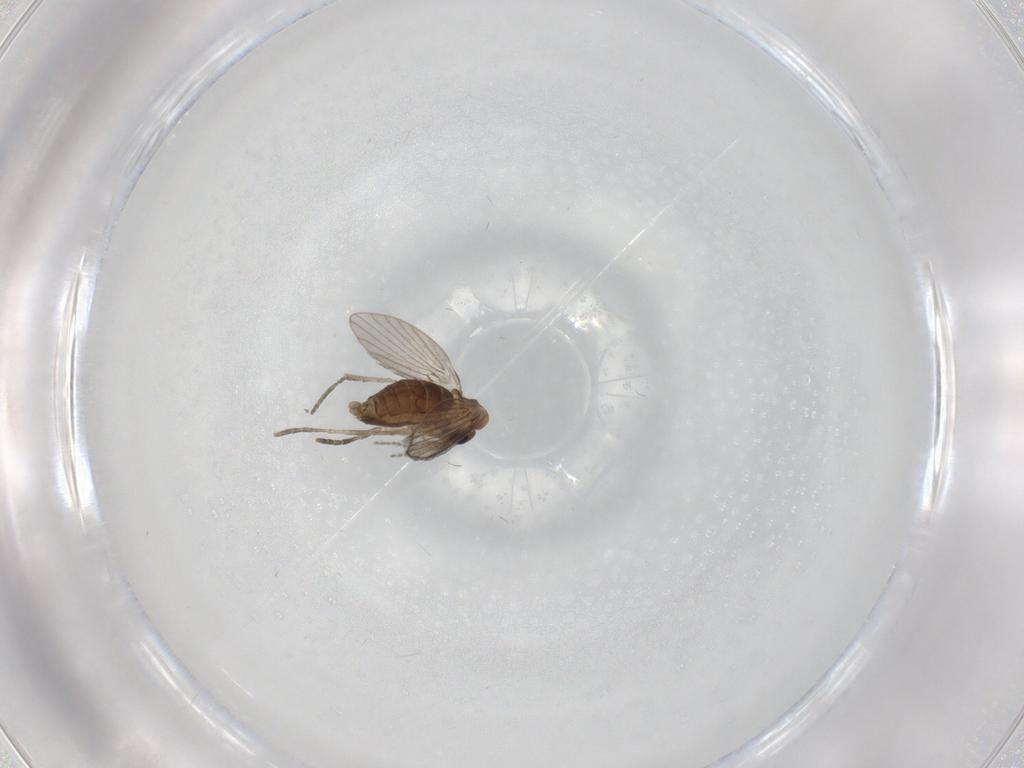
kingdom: Animalia
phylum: Arthropoda
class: Insecta
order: Diptera
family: Psychodidae
